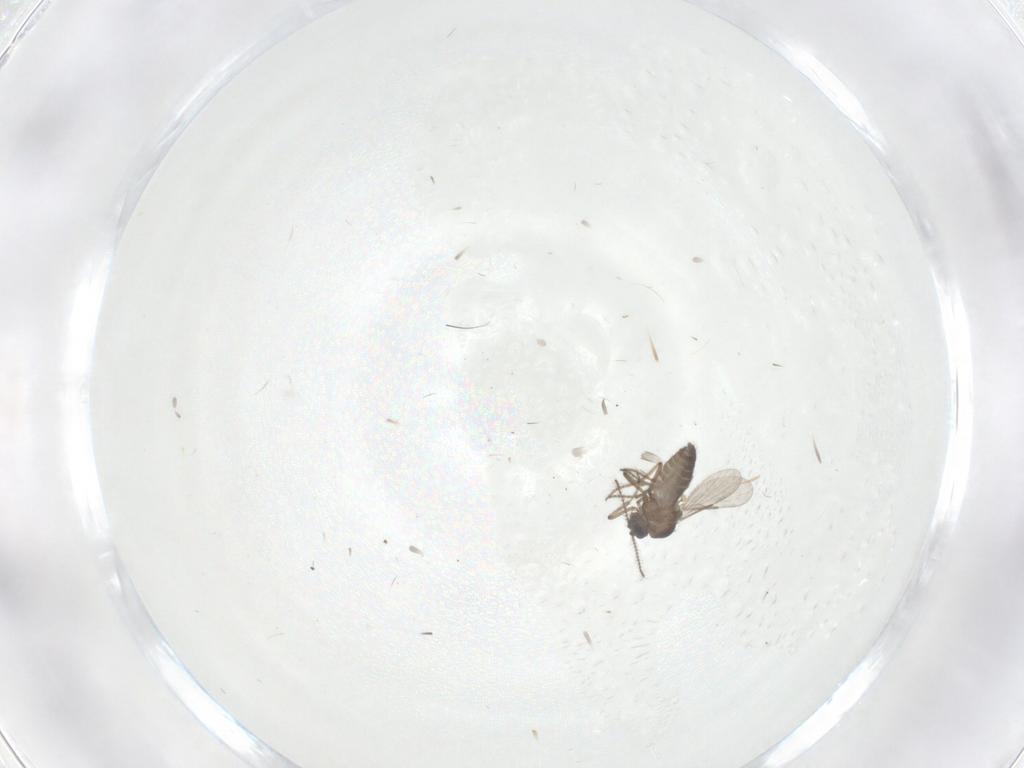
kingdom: Animalia
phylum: Arthropoda
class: Insecta
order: Diptera
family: Ceratopogonidae
